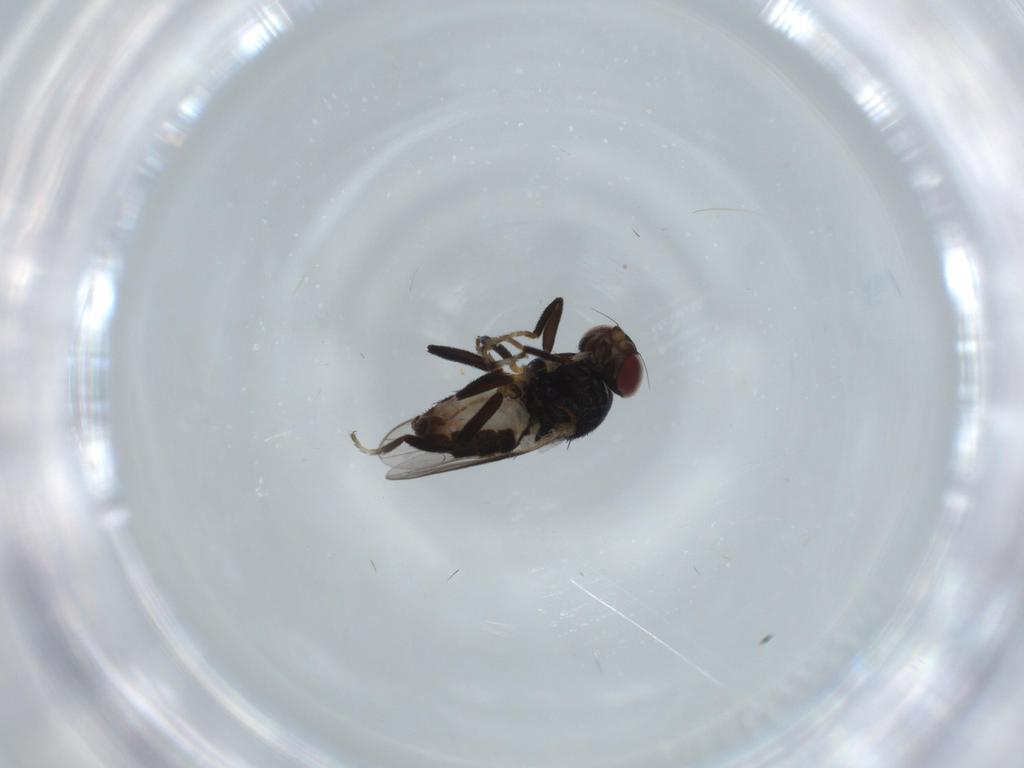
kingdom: Animalia
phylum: Arthropoda
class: Insecta
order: Diptera
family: Chloropidae
